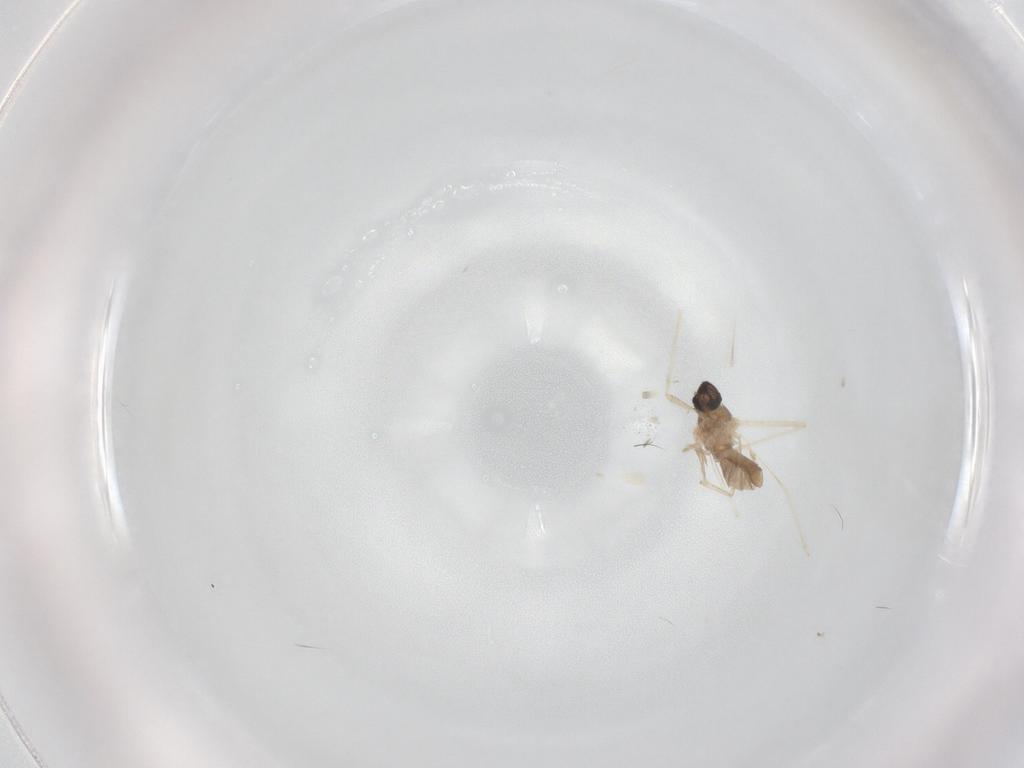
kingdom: Animalia
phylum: Arthropoda
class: Insecta
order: Diptera
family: Cecidomyiidae
